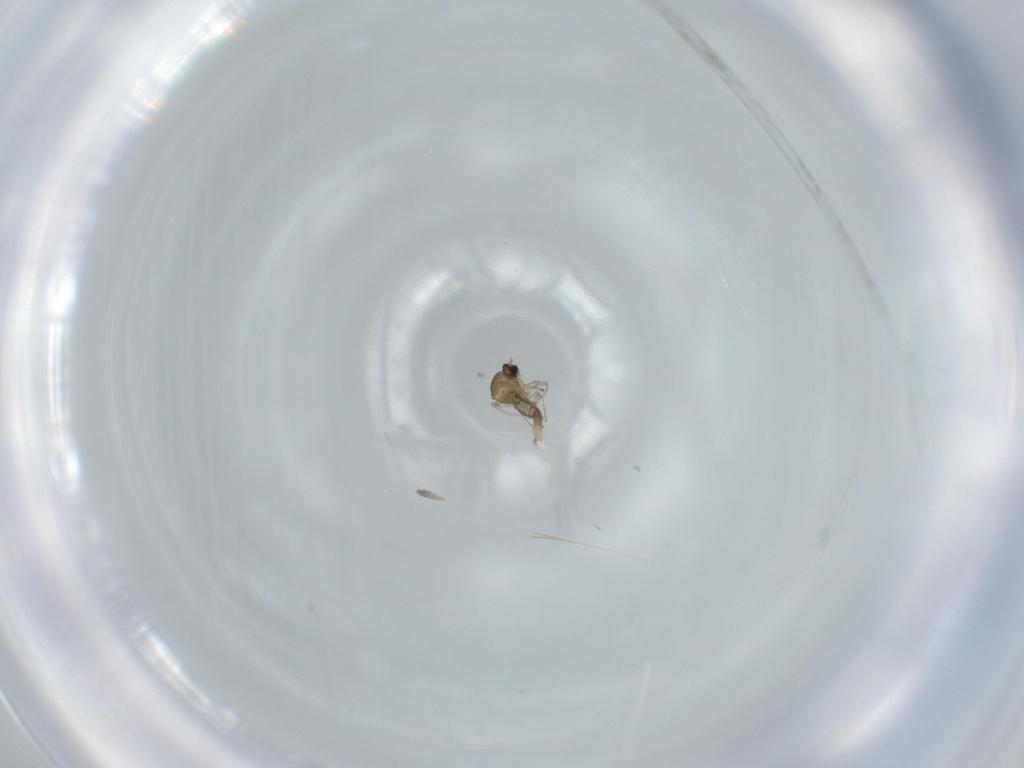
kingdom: Animalia
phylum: Arthropoda
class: Insecta
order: Diptera
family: Cecidomyiidae
